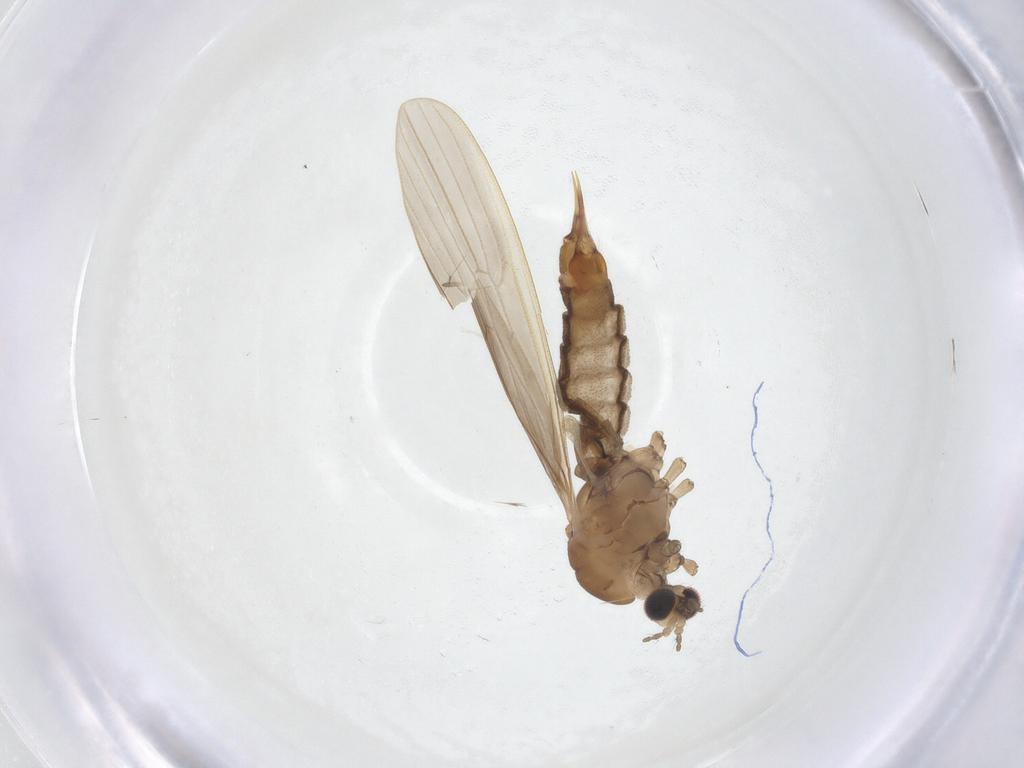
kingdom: Animalia
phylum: Arthropoda
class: Insecta
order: Diptera
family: Limoniidae
